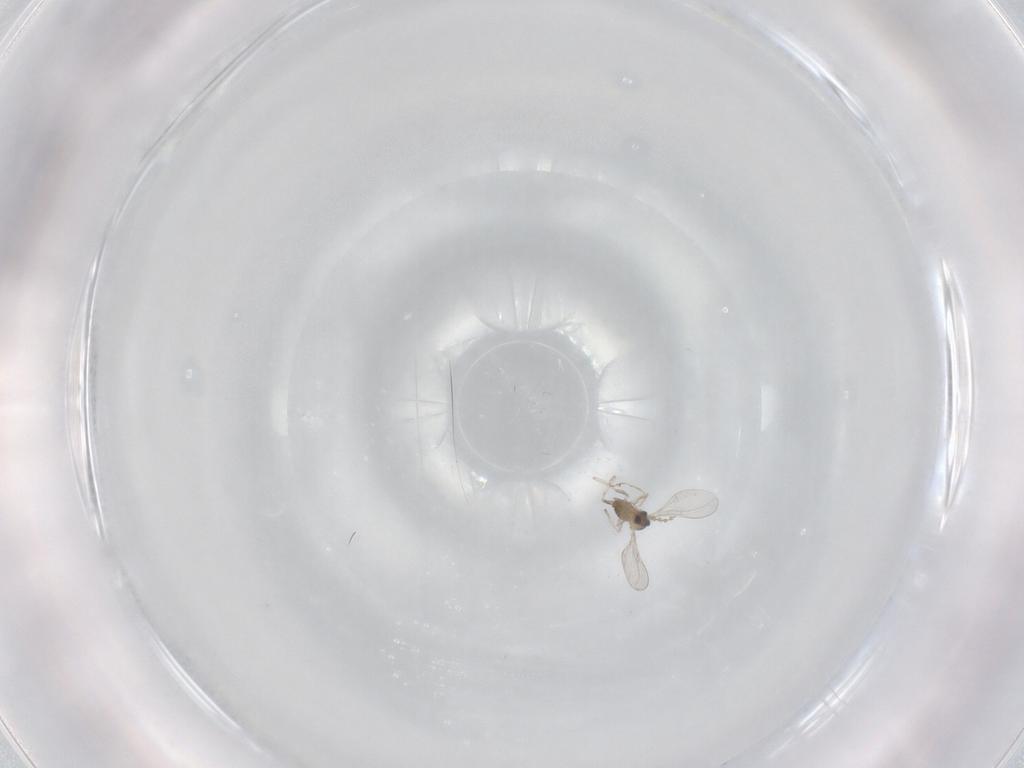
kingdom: Animalia
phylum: Arthropoda
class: Insecta
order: Diptera
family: Cecidomyiidae
